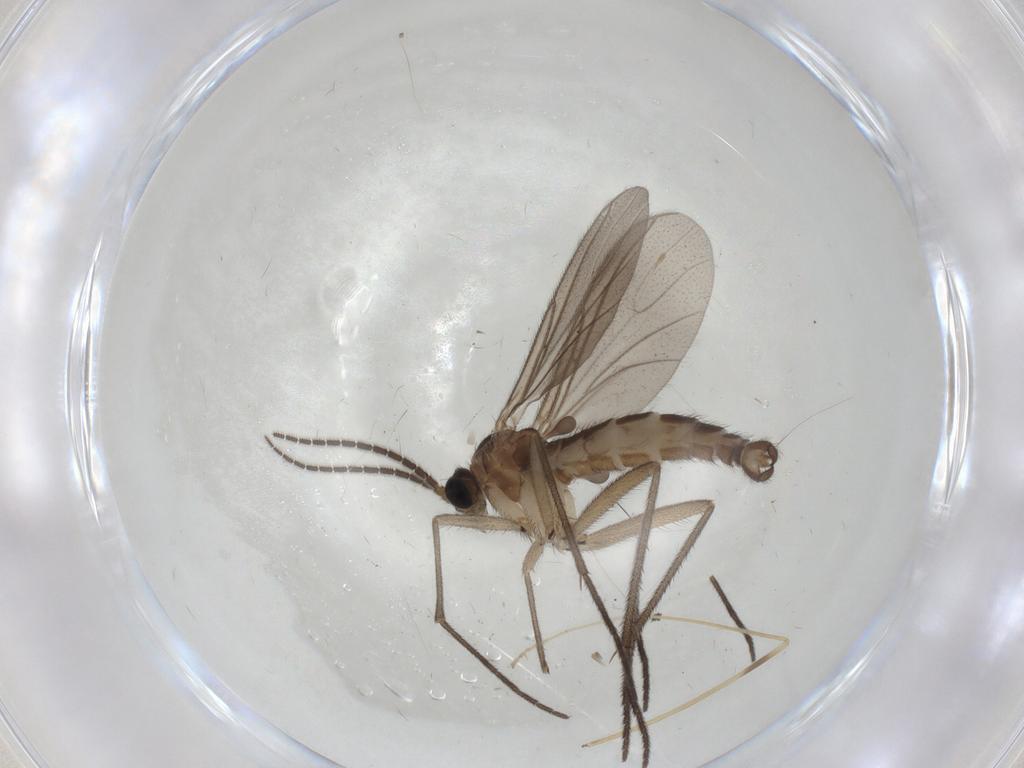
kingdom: Animalia
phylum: Arthropoda
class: Insecta
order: Diptera
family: Sciaridae
